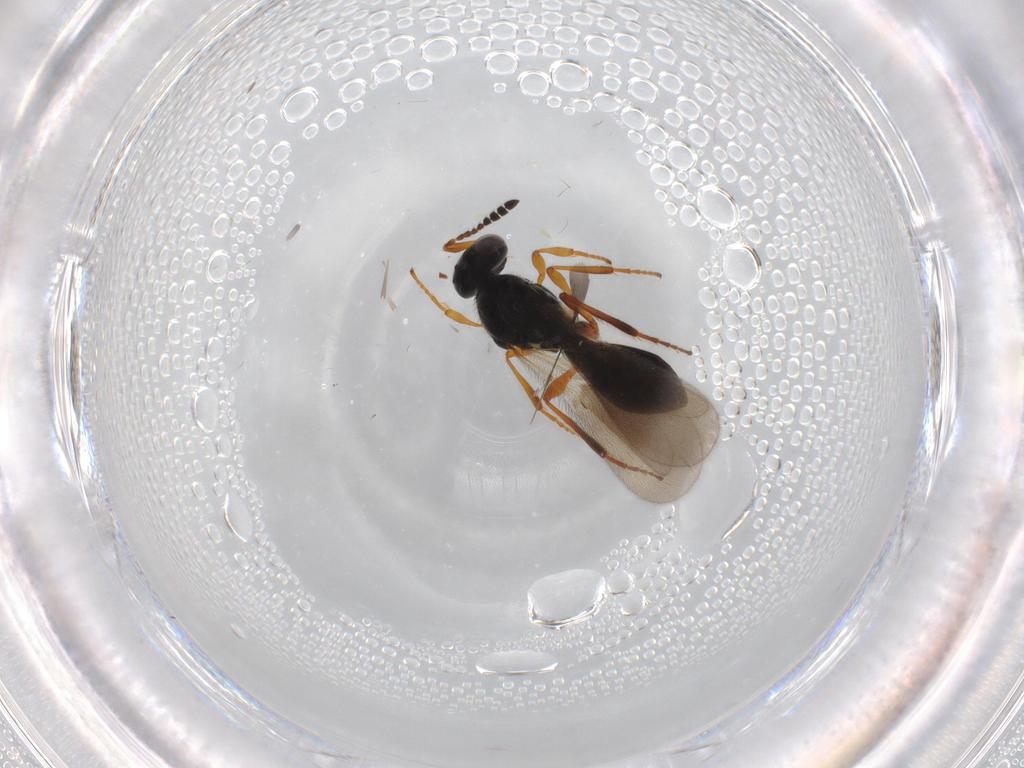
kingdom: Animalia
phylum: Arthropoda
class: Insecta
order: Hymenoptera
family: Platygastridae
